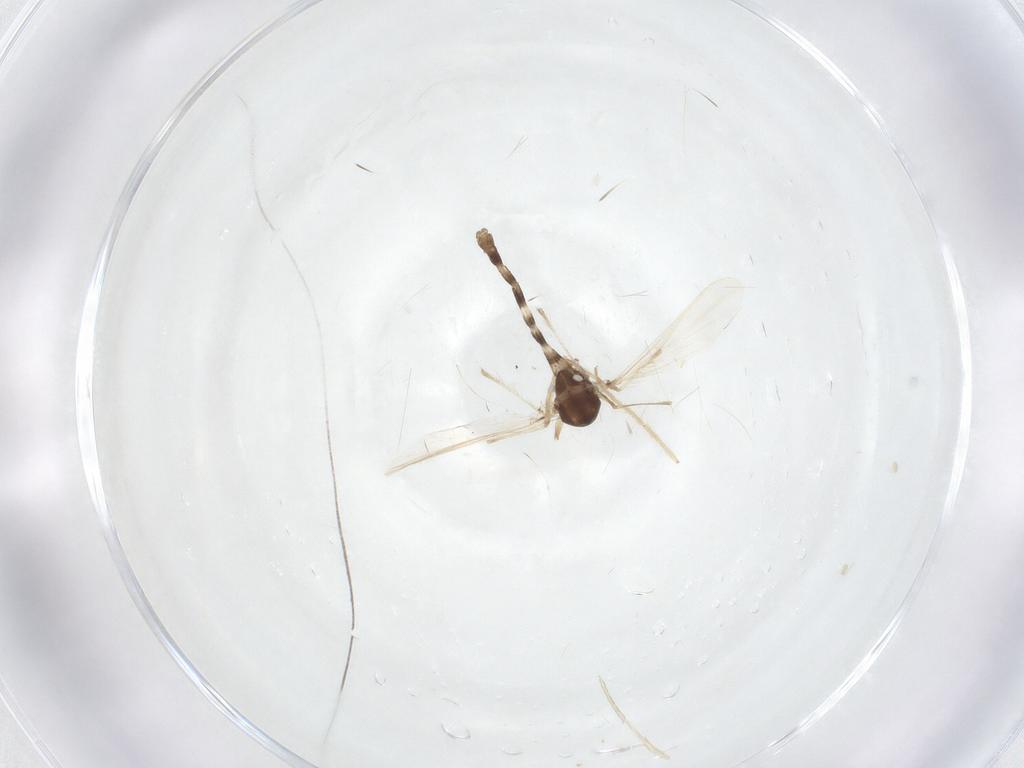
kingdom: Animalia
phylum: Arthropoda
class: Insecta
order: Diptera
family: Chironomidae
